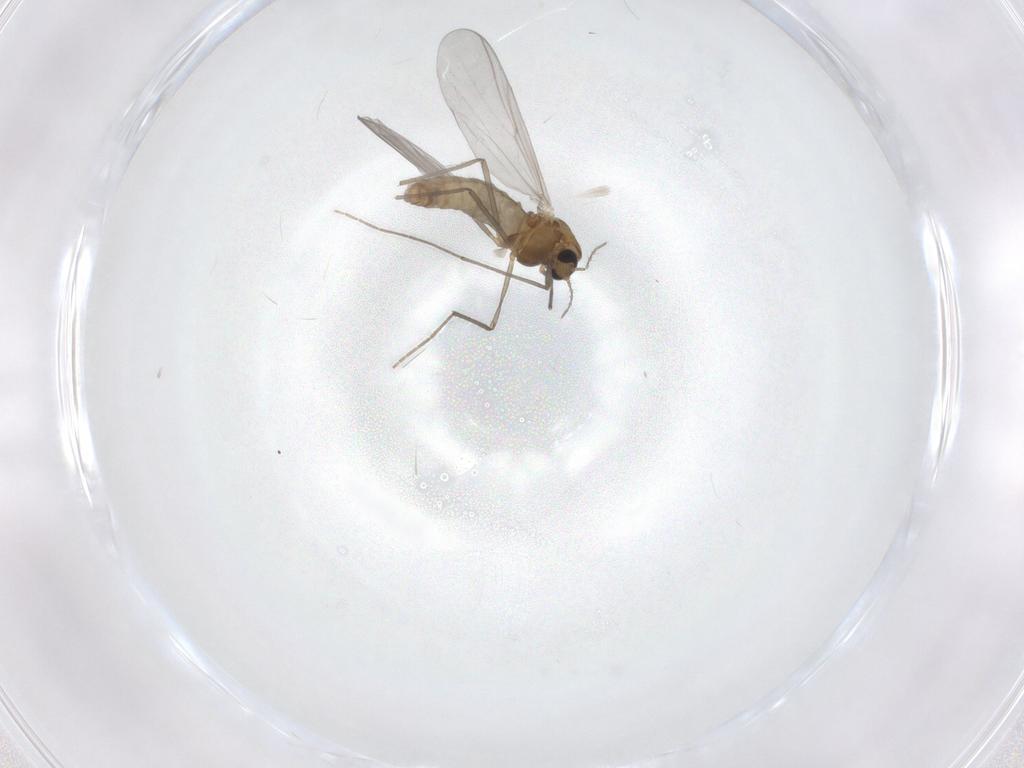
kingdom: Animalia
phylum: Arthropoda
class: Insecta
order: Diptera
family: Chironomidae
